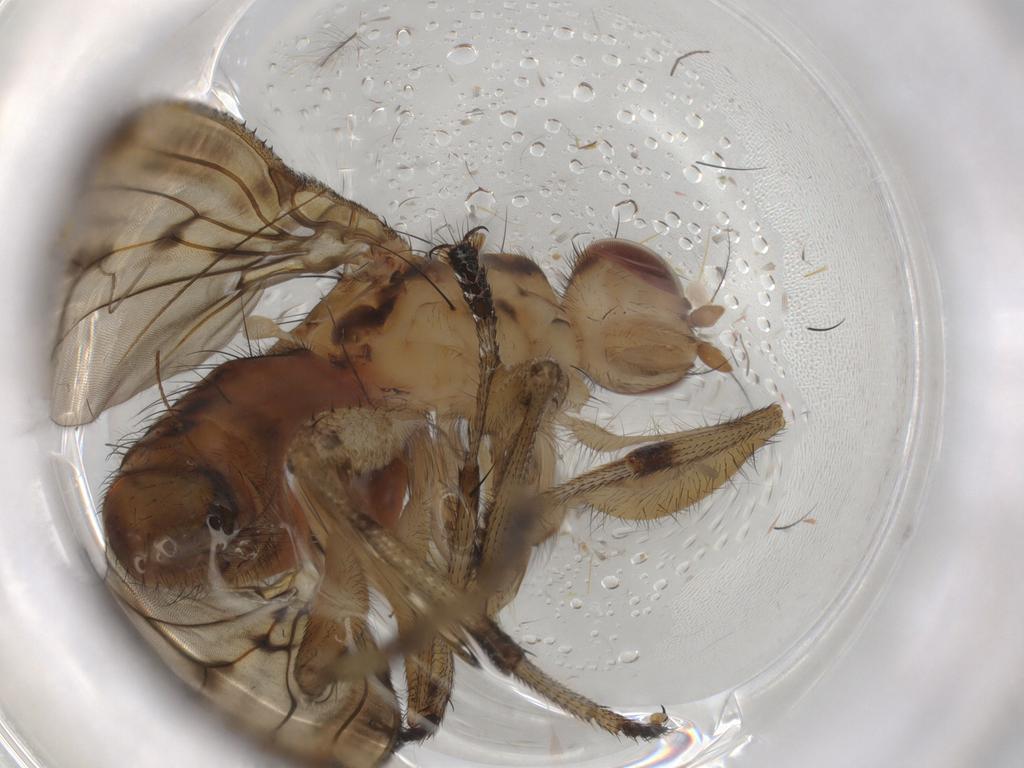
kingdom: Animalia
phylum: Arthropoda
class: Insecta
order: Diptera
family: Heleomyzidae
